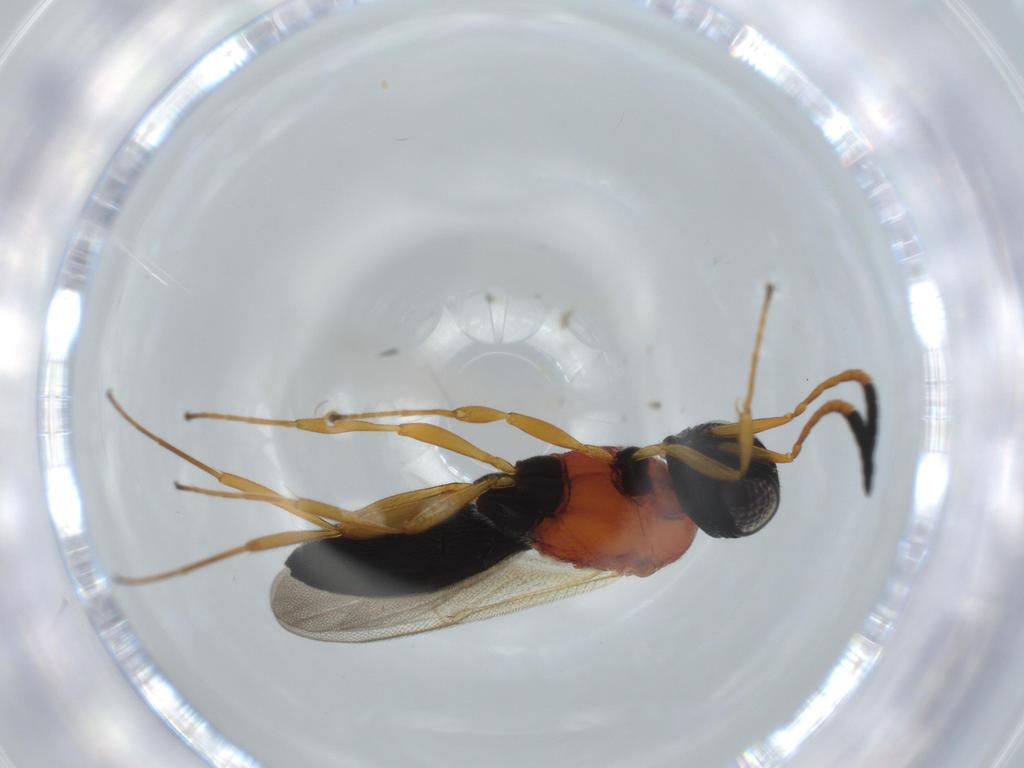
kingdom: Animalia
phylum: Arthropoda
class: Insecta
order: Hymenoptera
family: Scelionidae
